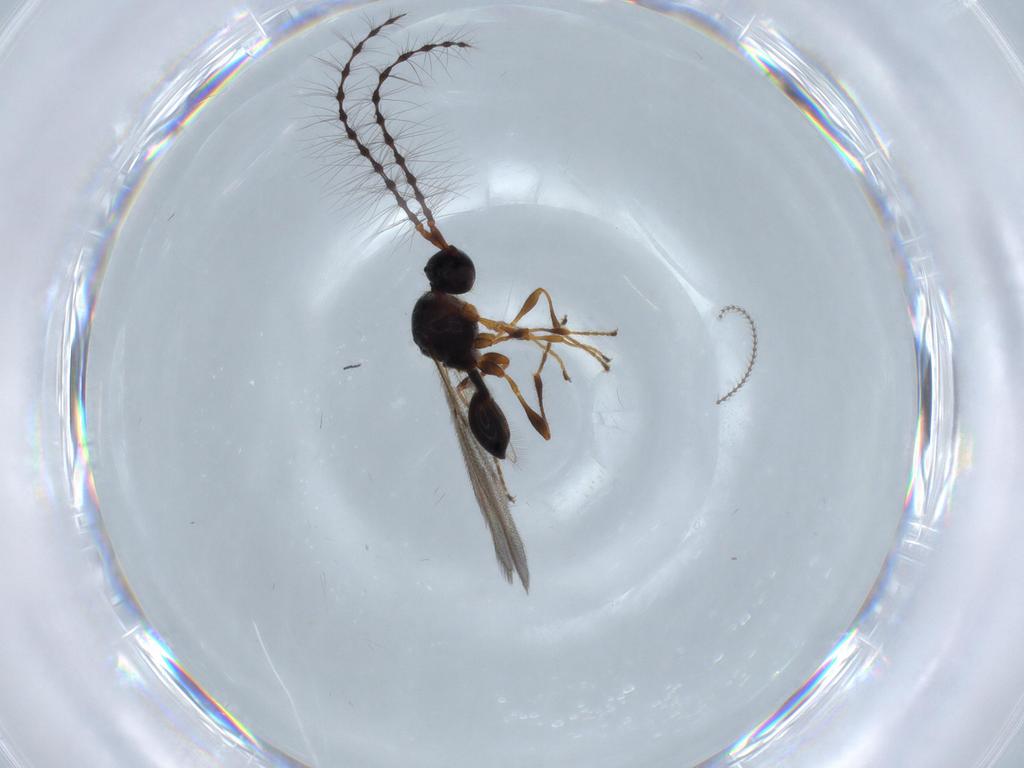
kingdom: Animalia
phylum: Arthropoda
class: Insecta
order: Hymenoptera
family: Diapriidae
